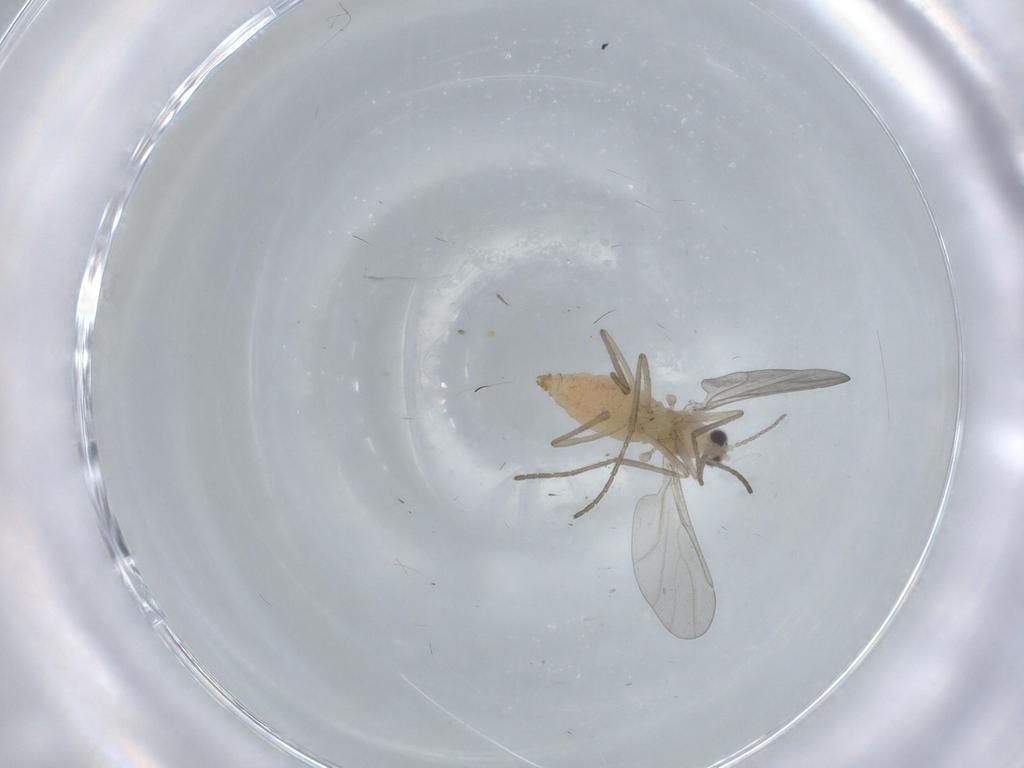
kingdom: Animalia
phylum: Arthropoda
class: Insecta
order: Diptera
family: Cecidomyiidae
